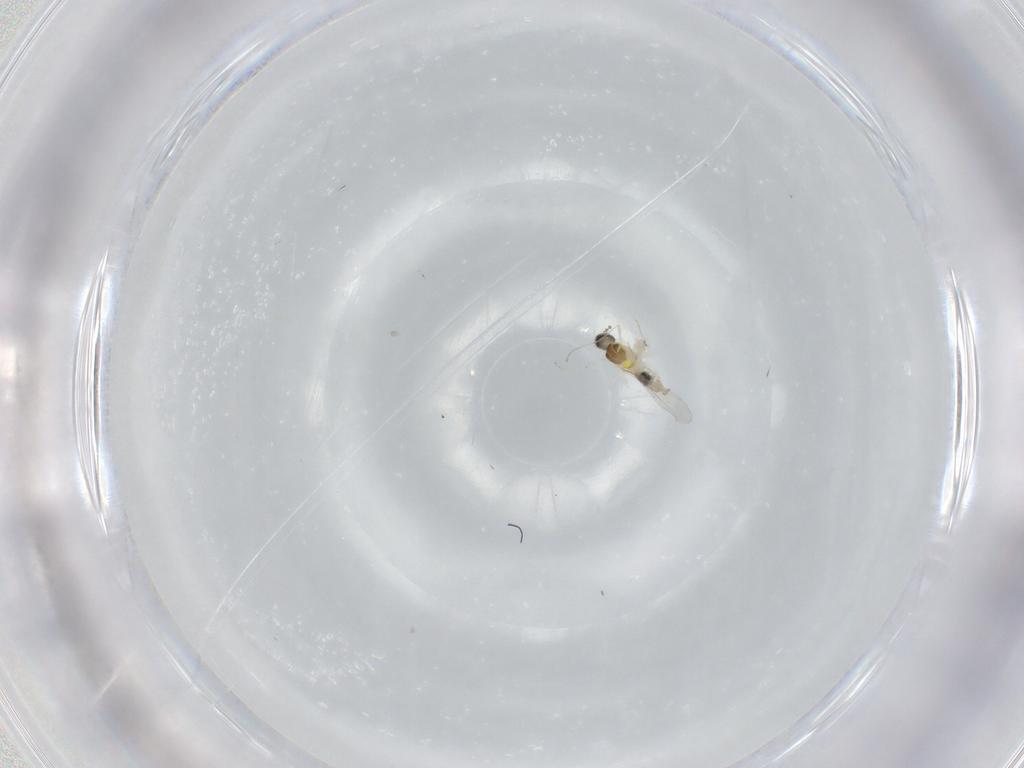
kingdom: Animalia
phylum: Arthropoda
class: Insecta
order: Diptera
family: Cecidomyiidae
